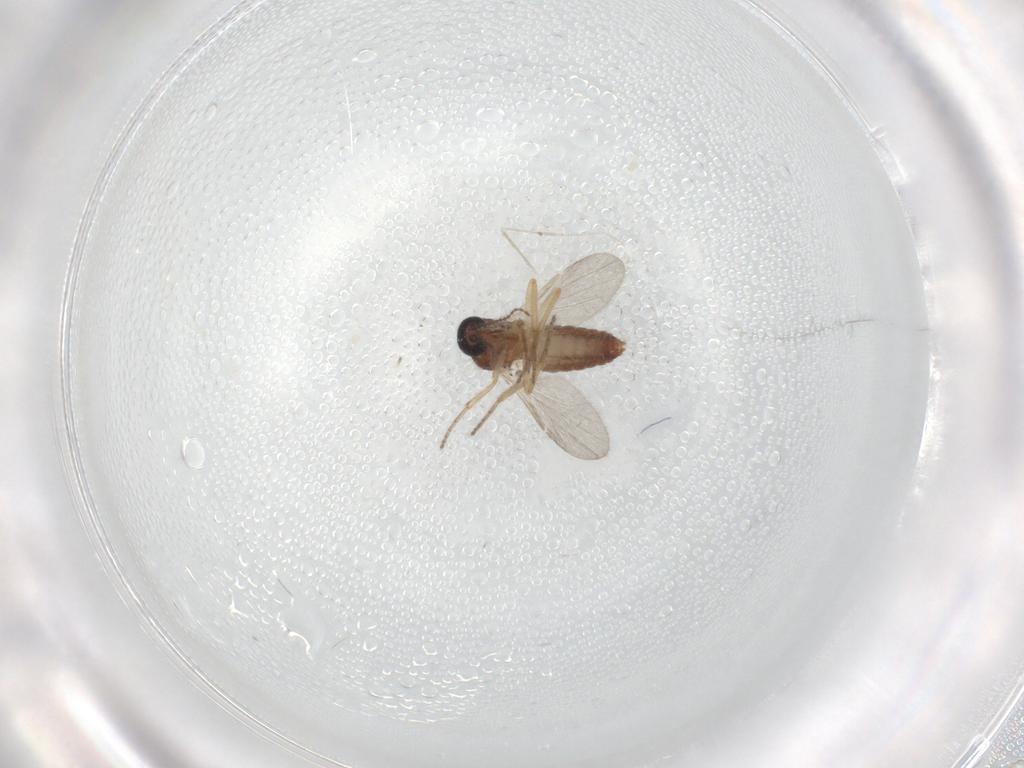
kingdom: Animalia
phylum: Arthropoda
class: Insecta
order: Diptera
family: Ceratopogonidae
